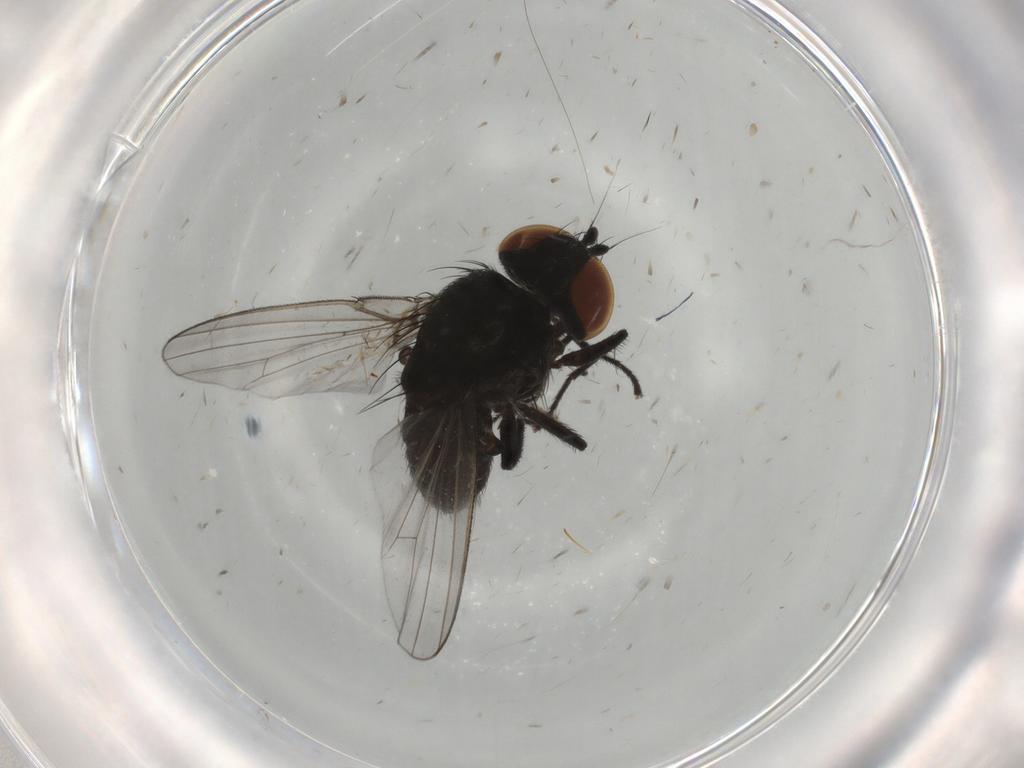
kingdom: Animalia
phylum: Arthropoda
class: Insecta
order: Diptera
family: Milichiidae
